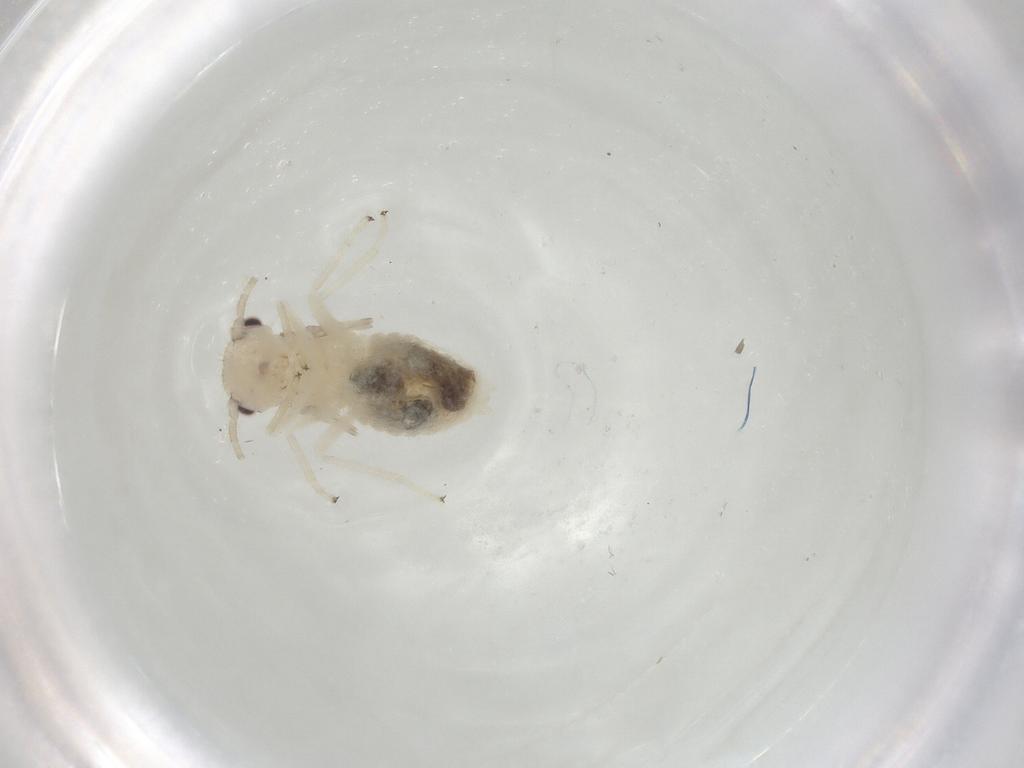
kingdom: Animalia
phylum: Arthropoda
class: Insecta
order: Psocodea
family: Amphipsocidae
